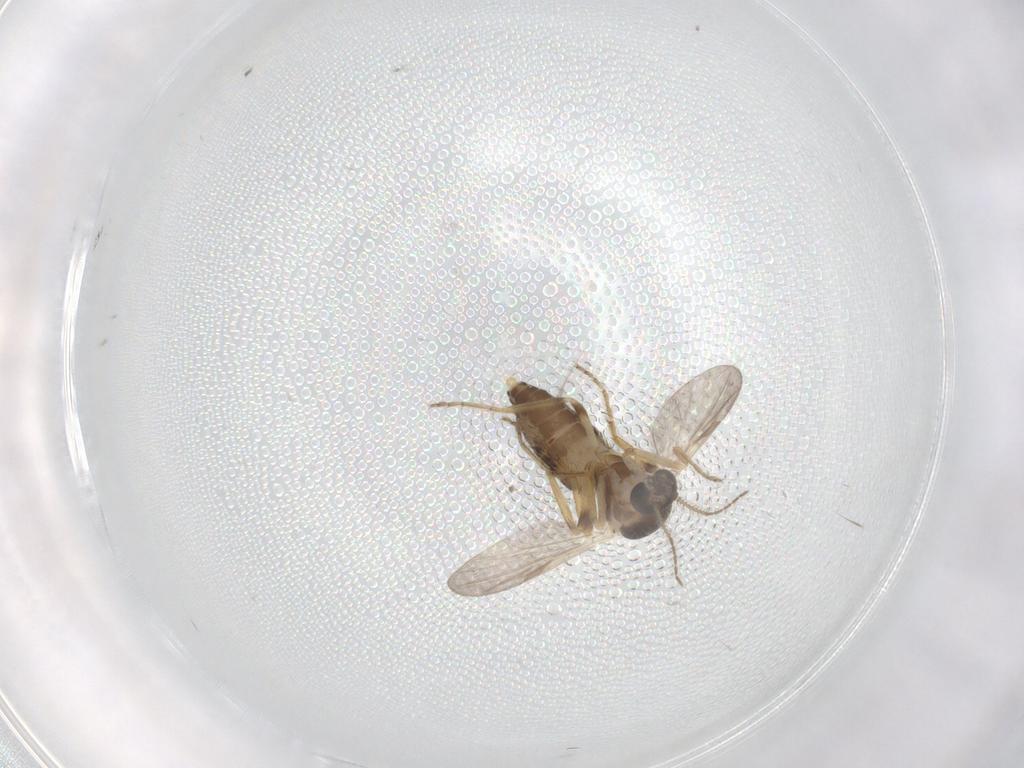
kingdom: Animalia
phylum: Arthropoda
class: Insecta
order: Diptera
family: Ceratopogonidae
